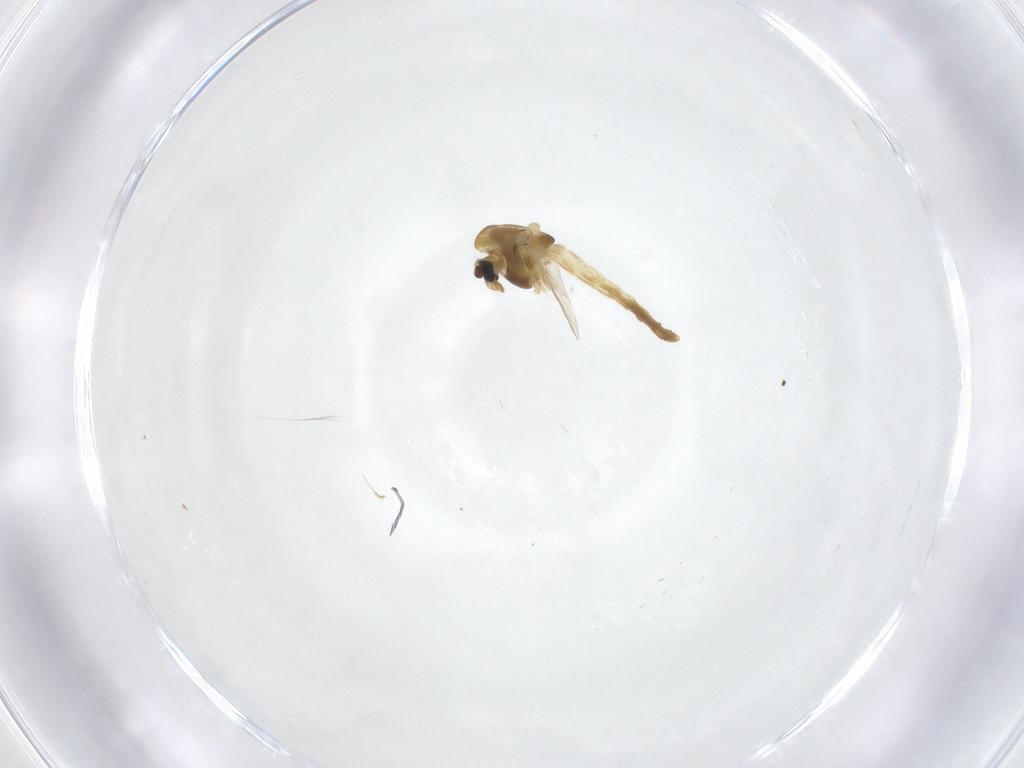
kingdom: Animalia
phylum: Arthropoda
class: Insecta
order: Diptera
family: Chironomidae
